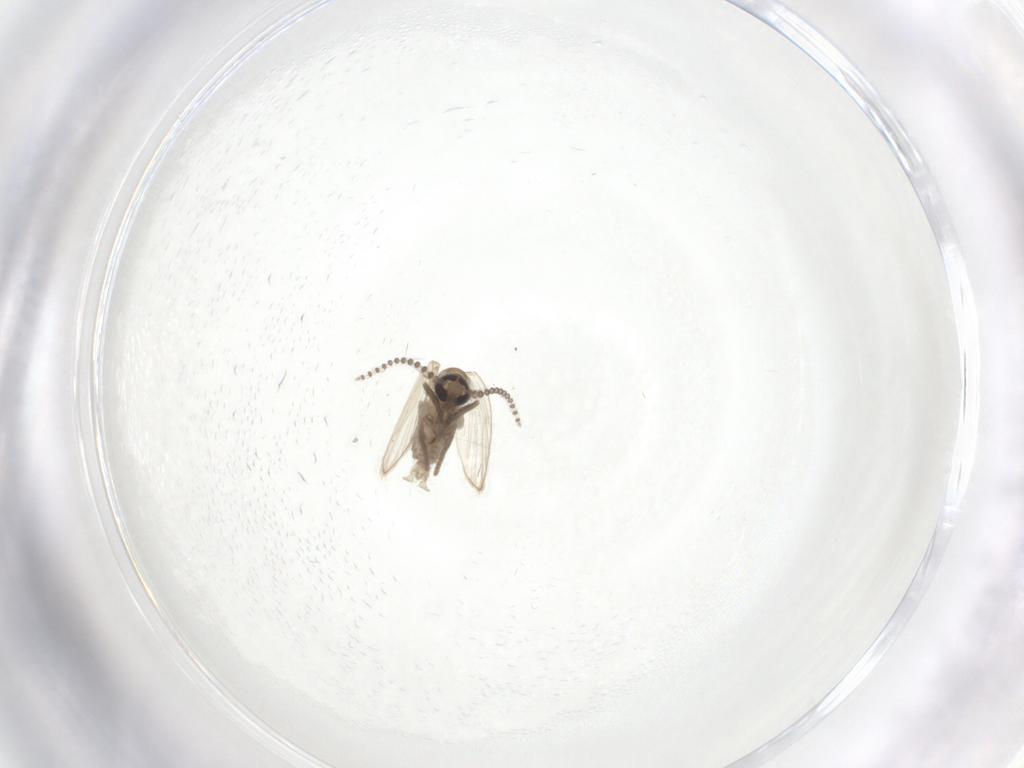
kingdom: Animalia
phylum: Arthropoda
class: Insecta
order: Diptera
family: Psychodidae
